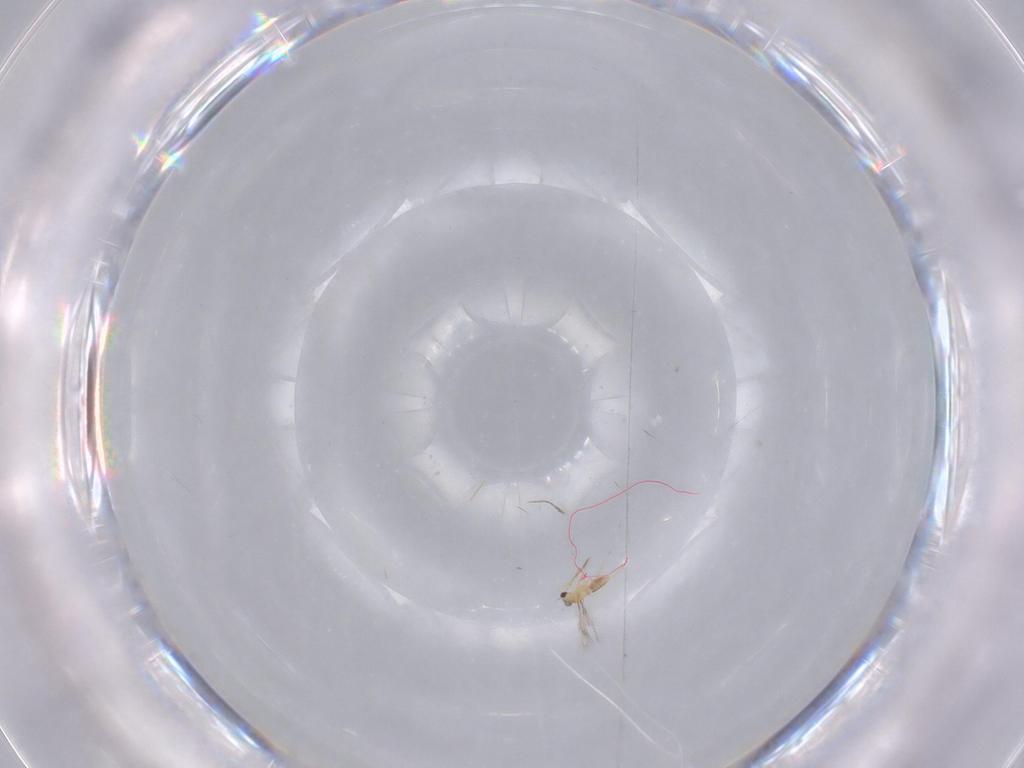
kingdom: Animalia
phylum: Arthropoda
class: Insecta
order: Hymenoptera
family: Mymaridae
